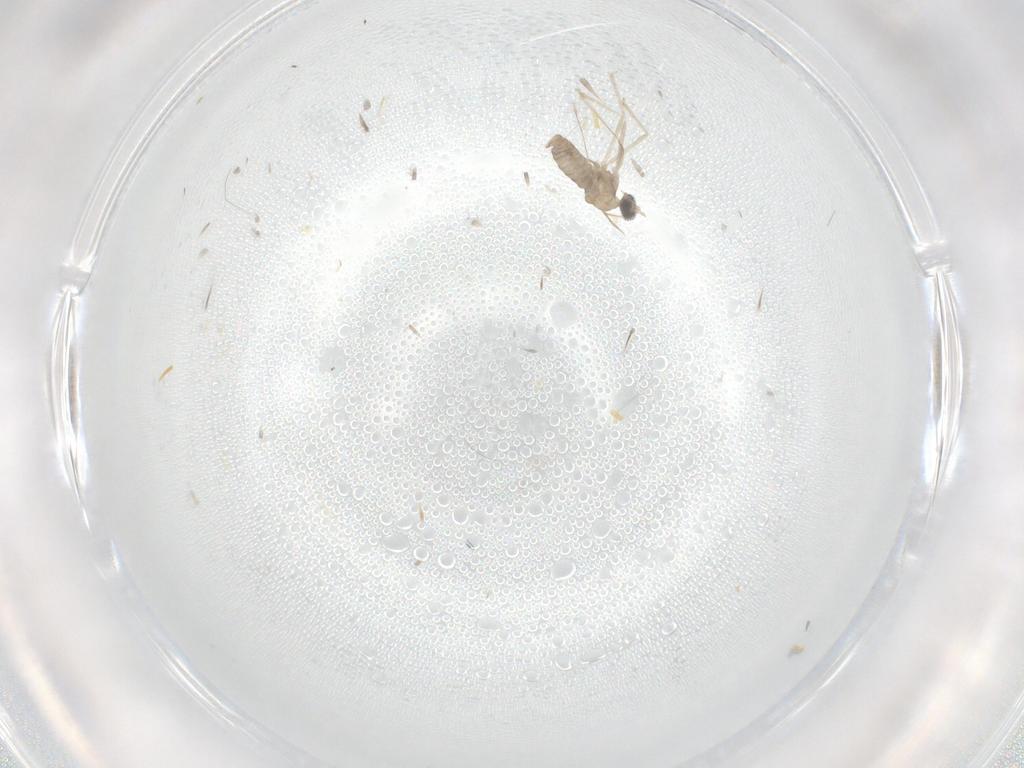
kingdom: Animalia
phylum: Arthropoda
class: Insecta
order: Diptera
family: Cecidomyiidae
